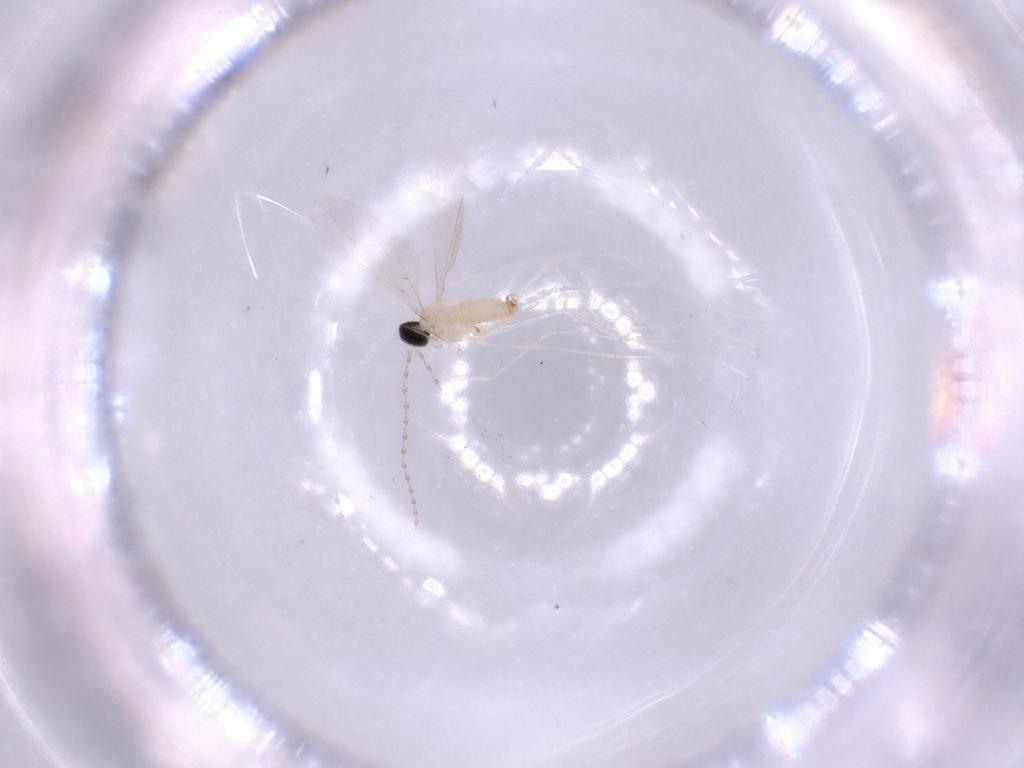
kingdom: Animalia
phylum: Arthropoda
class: Insecta
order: Diptera
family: Cecidomyiidae
